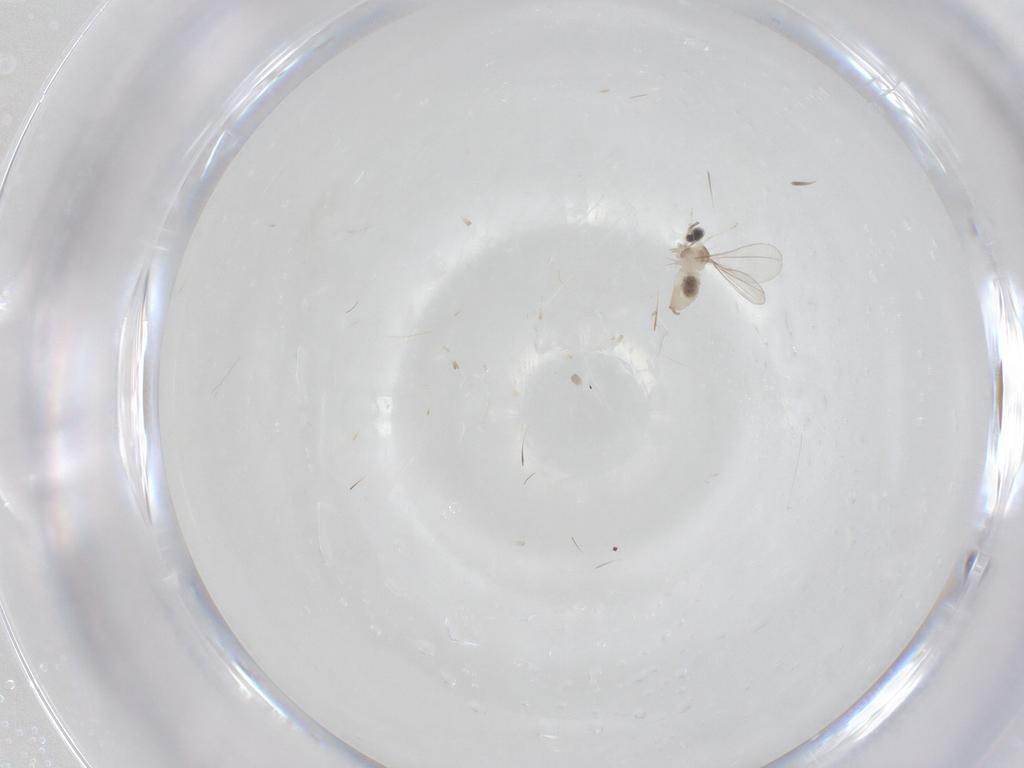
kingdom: Animalia
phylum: Arthropoda
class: Insecta
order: Diptera
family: Cecidomyiidae
